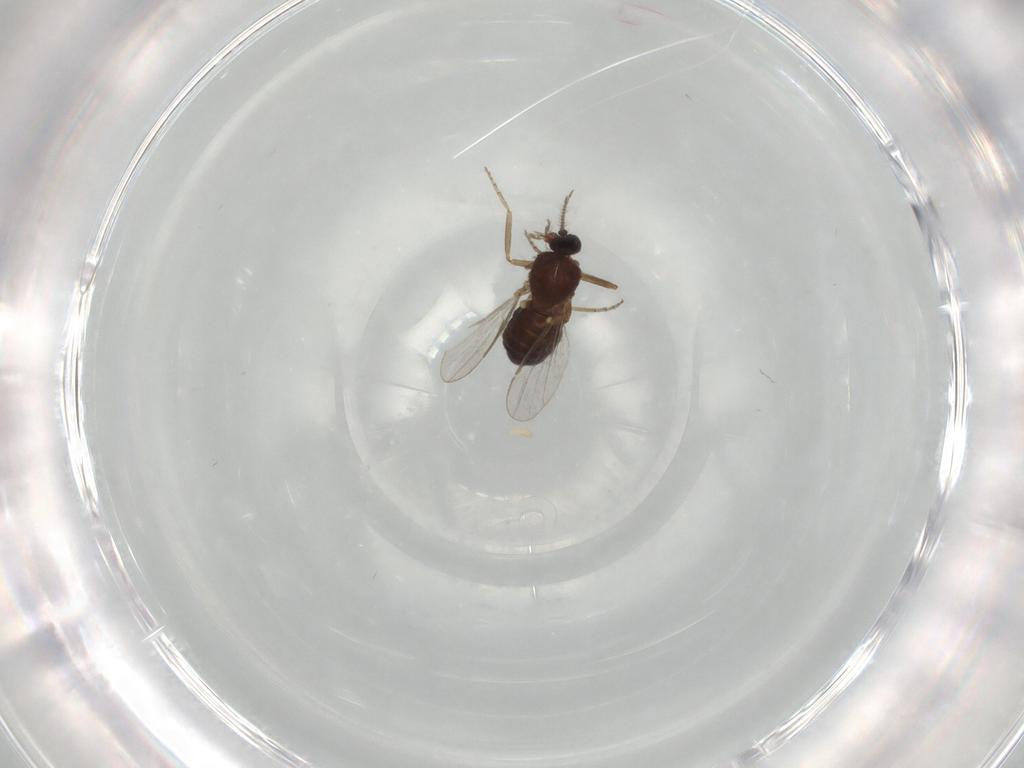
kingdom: Animalia
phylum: Arthropoda
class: Insecta
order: Diptera
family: Ceratopogonidae
